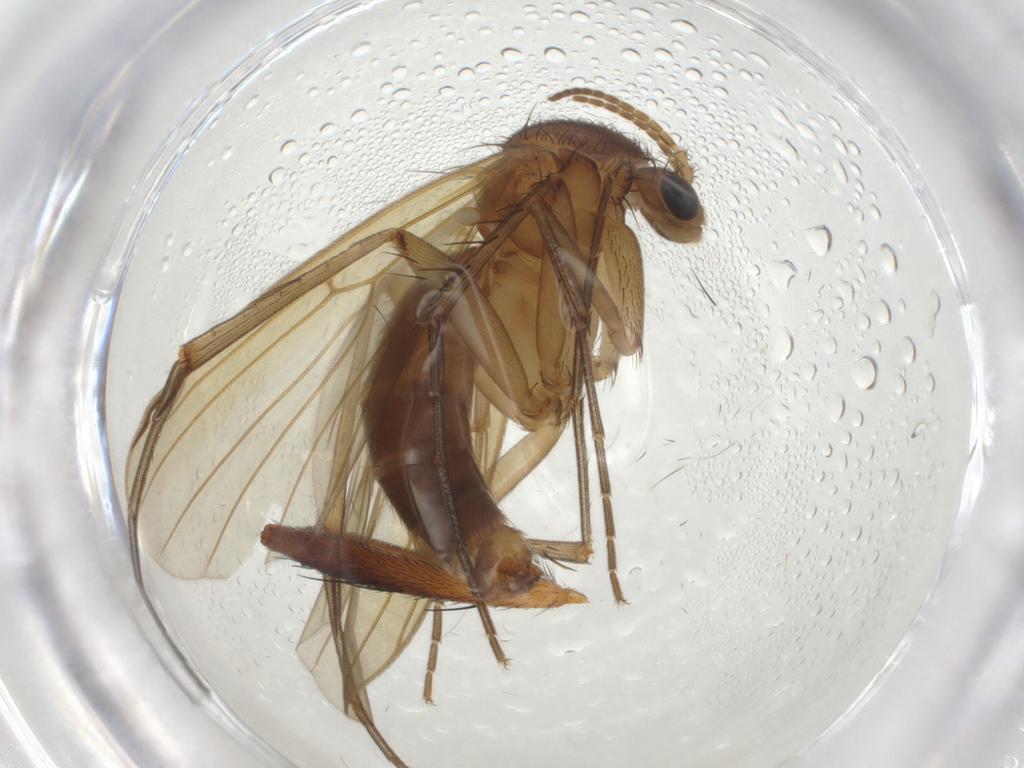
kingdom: Animalia
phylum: Arthropoda
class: Insecta
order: Diptera
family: Muscidae
